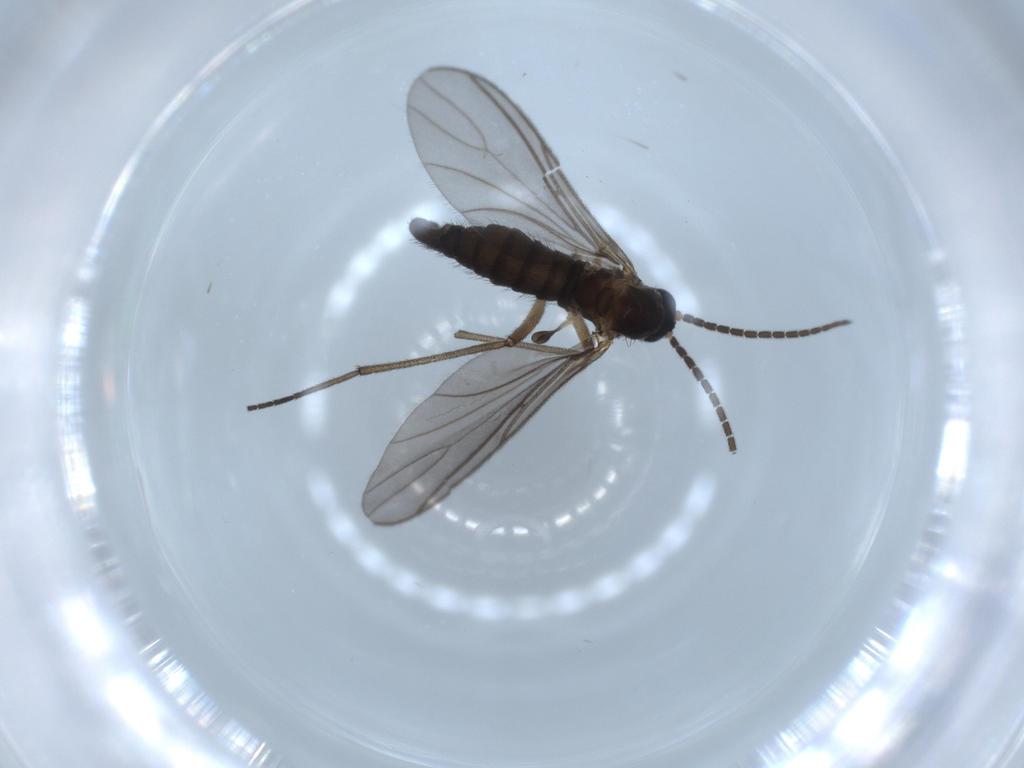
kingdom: Animalia
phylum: Arthropoda
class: Insecta
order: Diptera
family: Sciaridae
